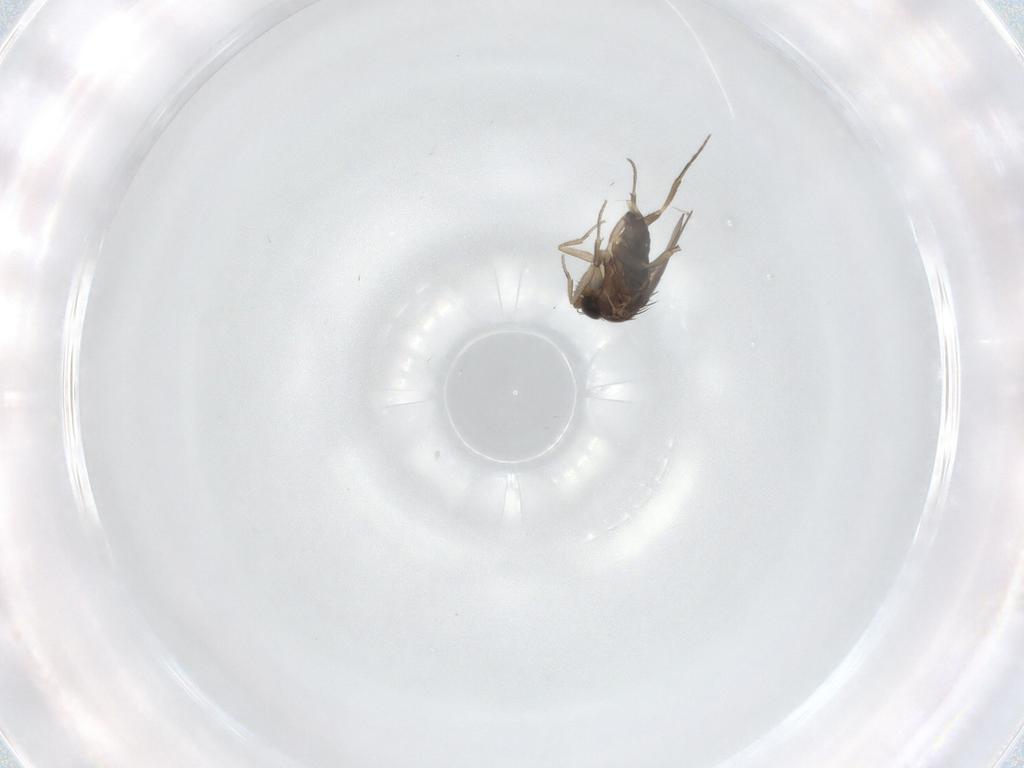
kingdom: Animalia
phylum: Arthropoda
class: Insecta
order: Diptera
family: Phoridae
